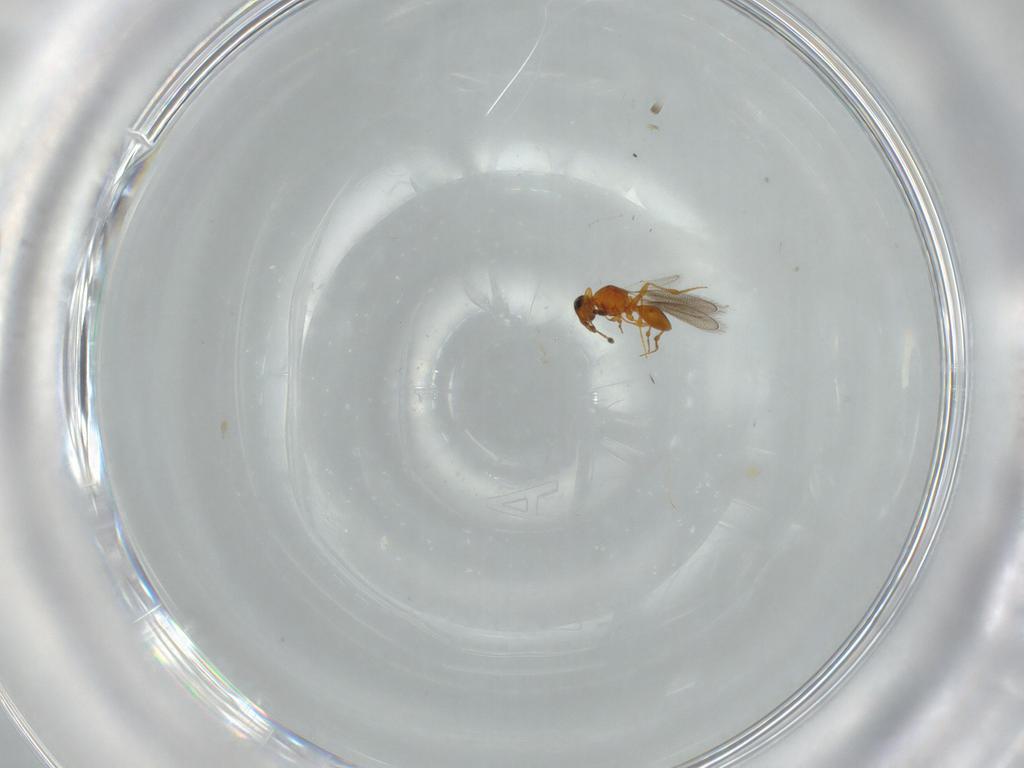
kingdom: Animalia
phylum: Arthropoda
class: Insecta
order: Hymenoptera
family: Platygastridae
